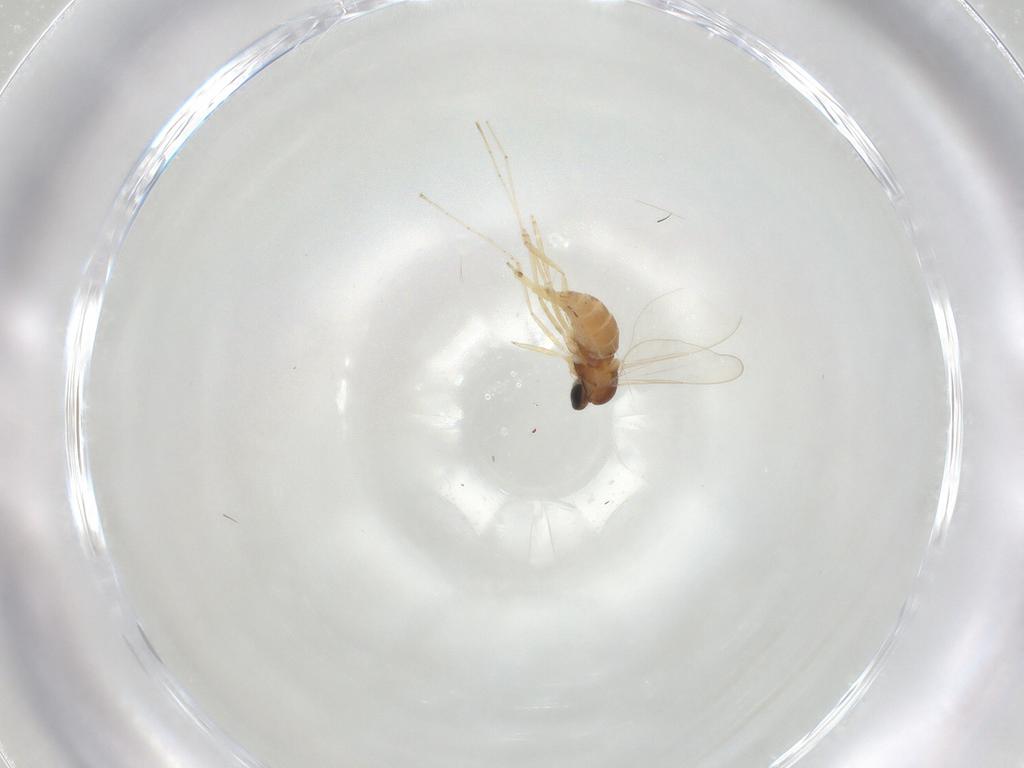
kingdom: Animalia
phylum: Arthropoda
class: Insecta
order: Diptera
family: Cecidomyiidae
